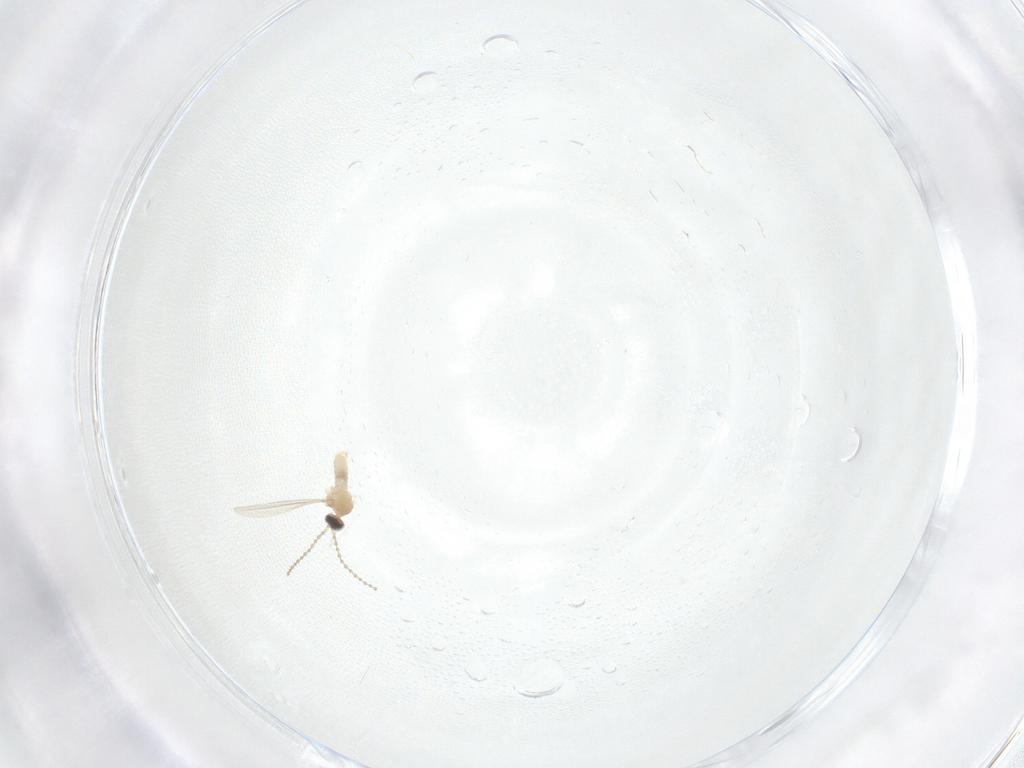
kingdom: Animalia
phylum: Arthropoda
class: Insecta
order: Diptera
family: Cecidomyiidae
